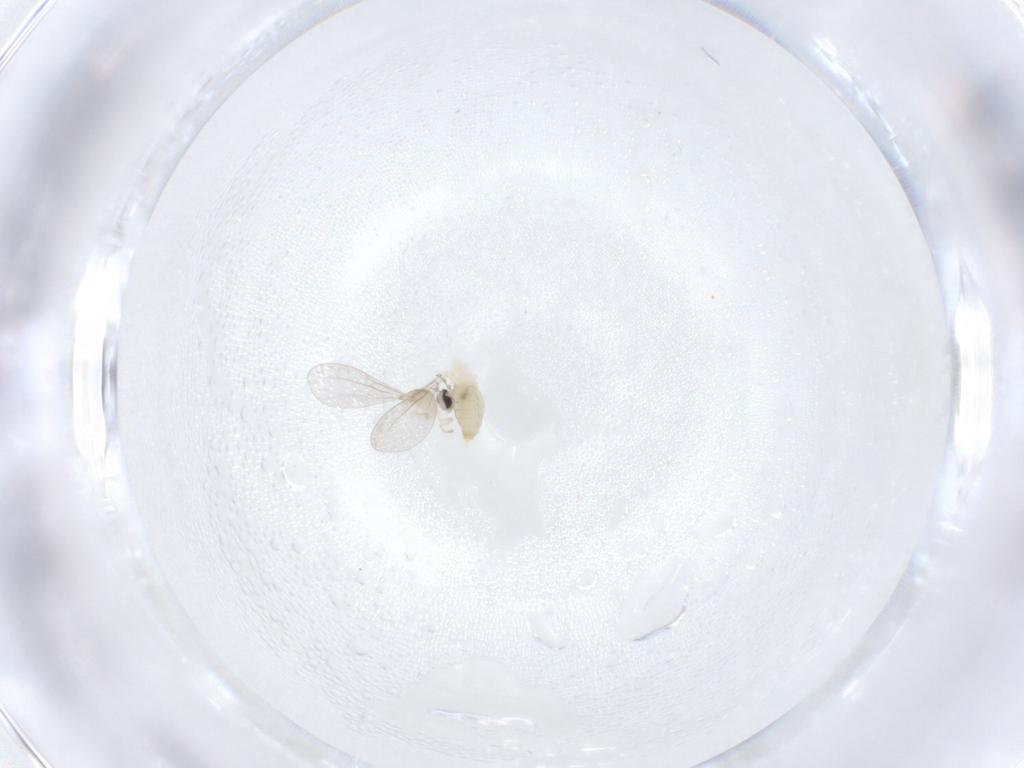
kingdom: Animalia
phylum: Arthropoda
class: Insecta
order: Diptera
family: Cecidomyiidae
